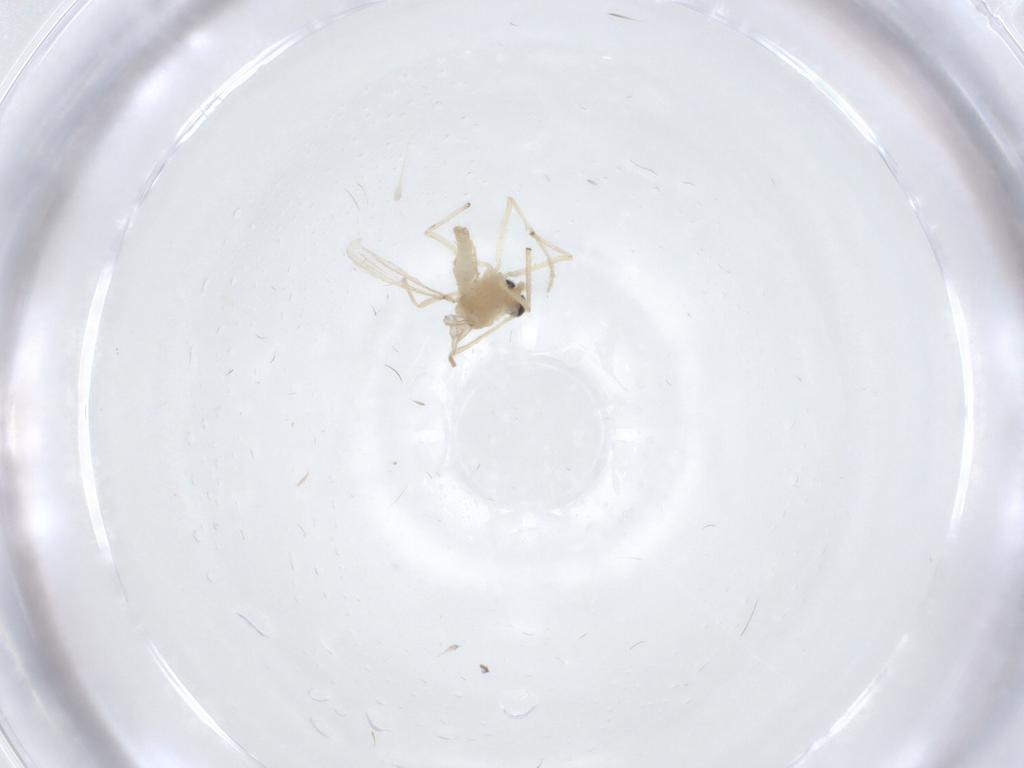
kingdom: Animalia
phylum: Arthropoda
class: Insecta
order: Diptera
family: Chironomidae
